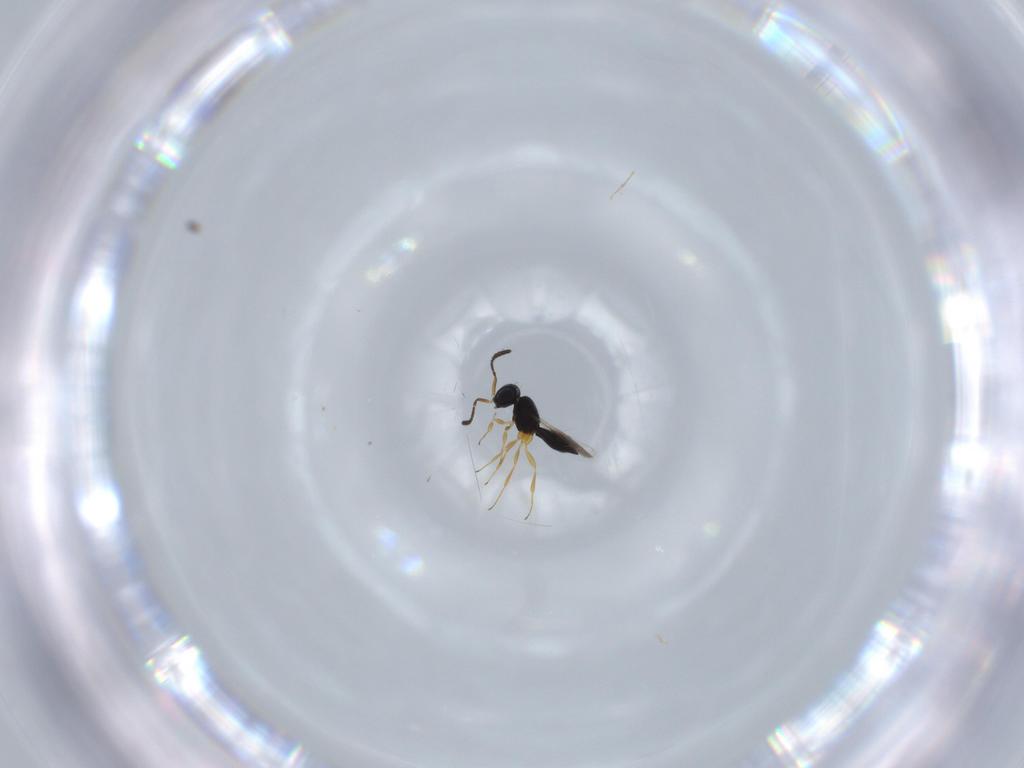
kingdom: Animalia
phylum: Arthropoda
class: Insecta
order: Hymenoptera
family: Scelionidae
